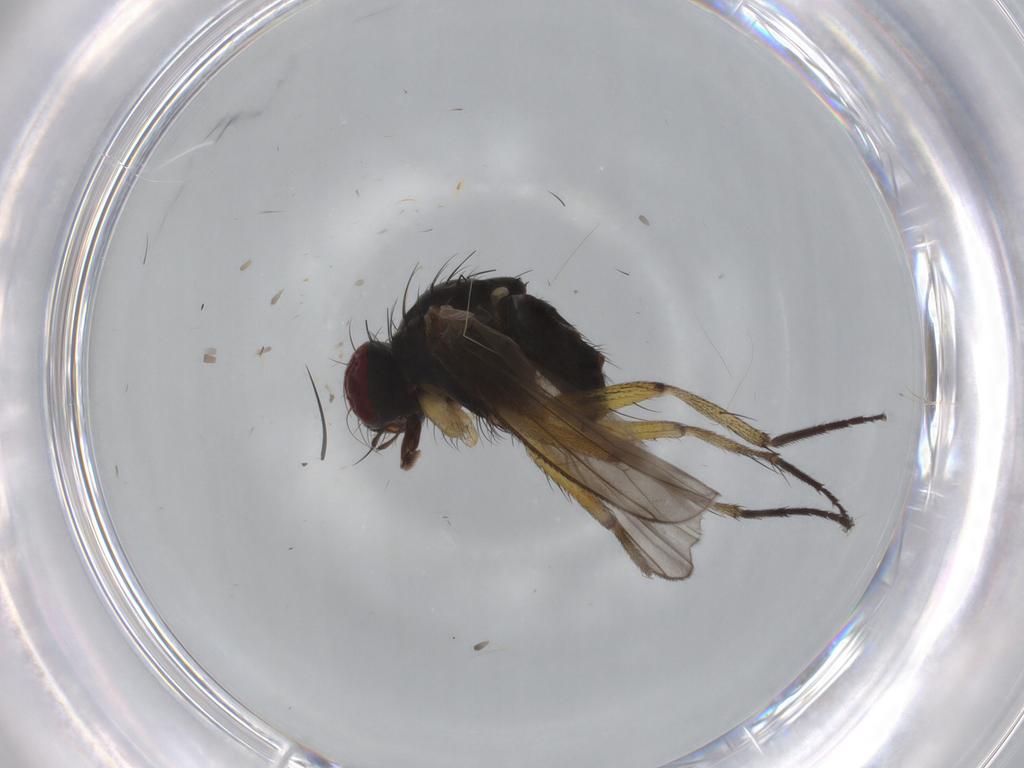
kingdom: Animalia
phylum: Arthropoda
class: Insecta
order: Diptera
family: Muscidae
